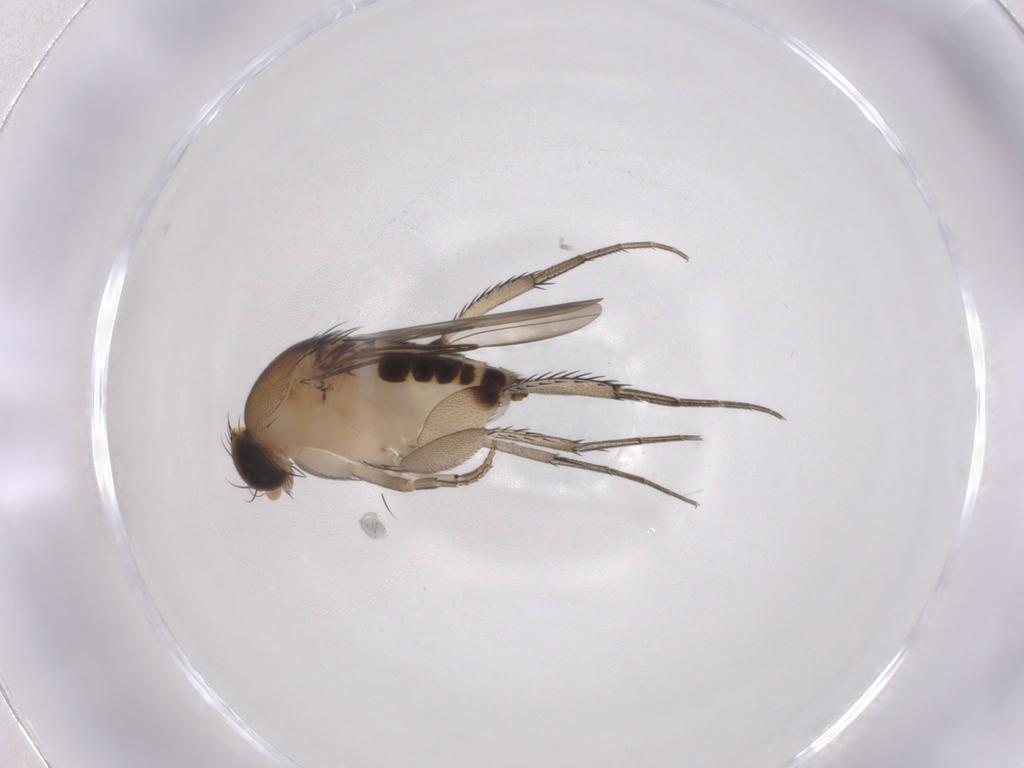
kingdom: Animalia
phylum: Arthropoda
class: Insecta
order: Diptera
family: Phoridae
